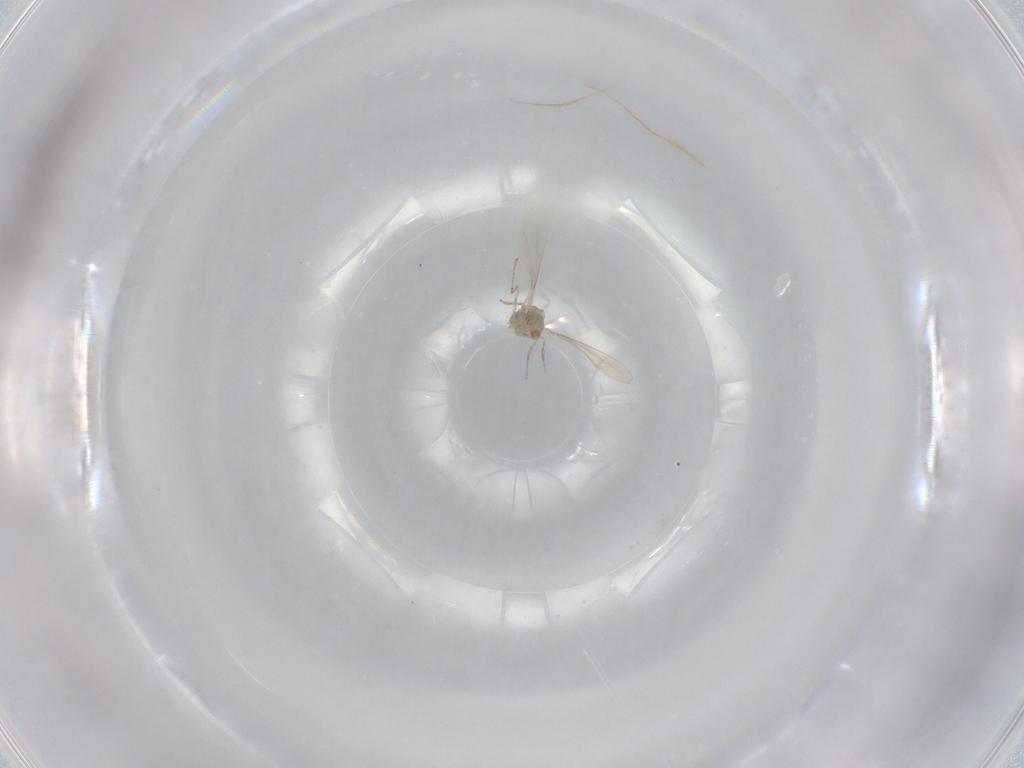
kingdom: Animalia
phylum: Arthropoda
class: Insecta
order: Diptera
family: Cecidomyiidae
